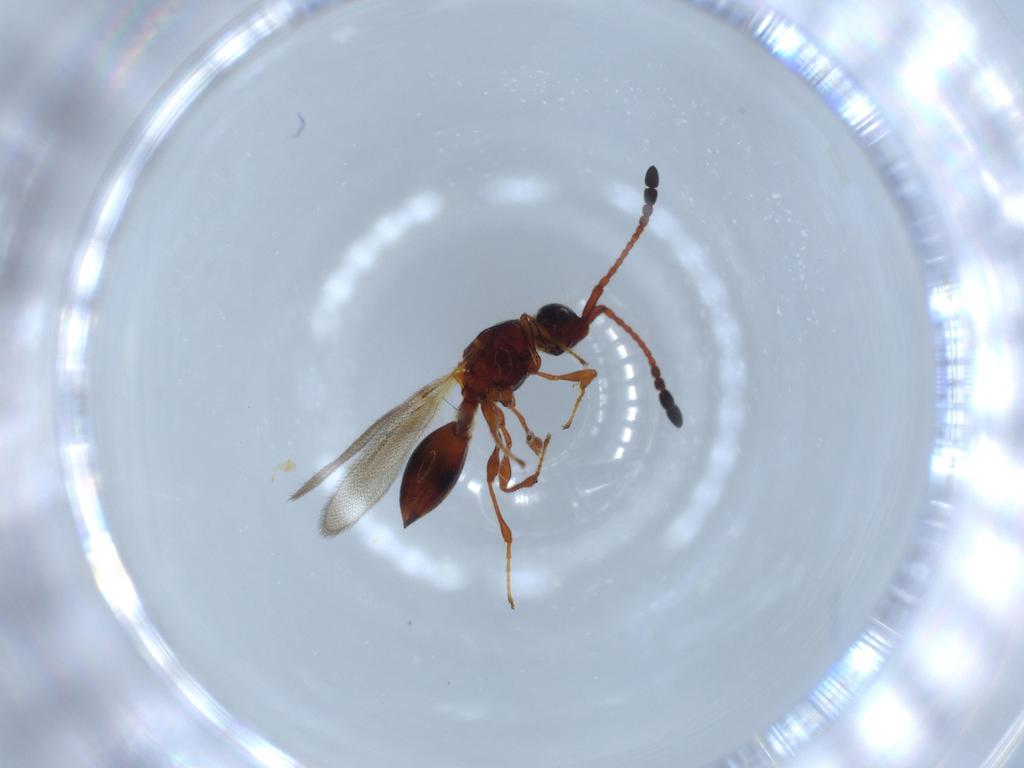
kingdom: Animalia
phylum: Arthropoda
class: Insecta
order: Hymenoptera
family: Diapriidae
